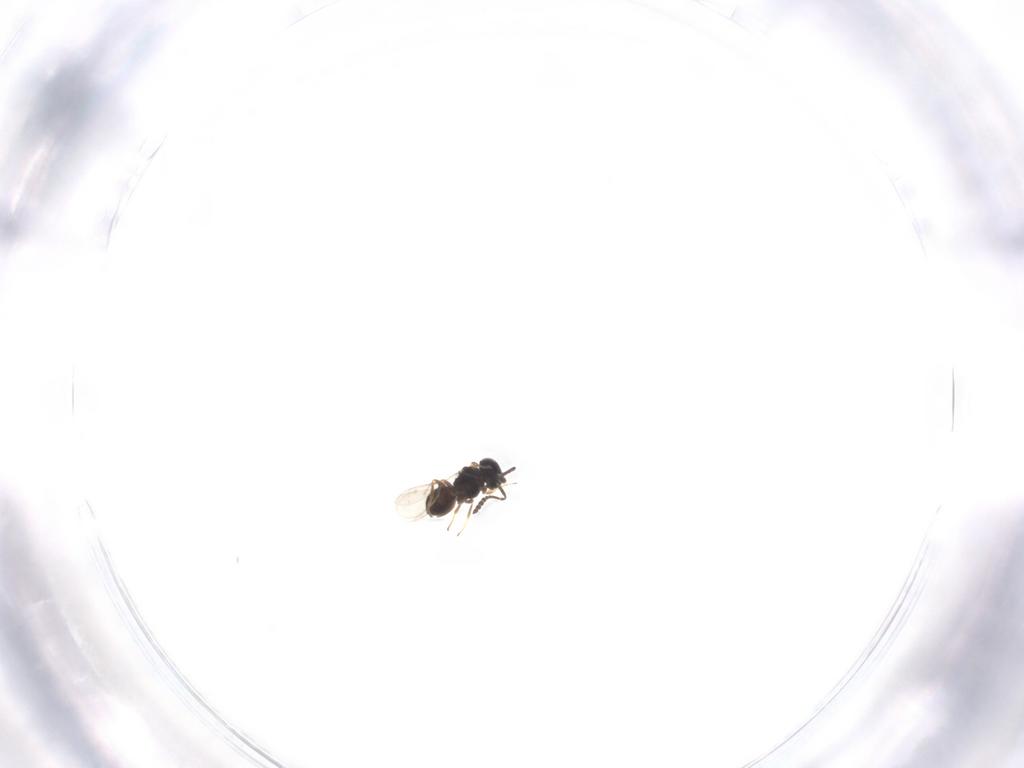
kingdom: Animalia
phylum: Arthropoda
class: Insecta
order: Hymenoptera
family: Scelionidae
